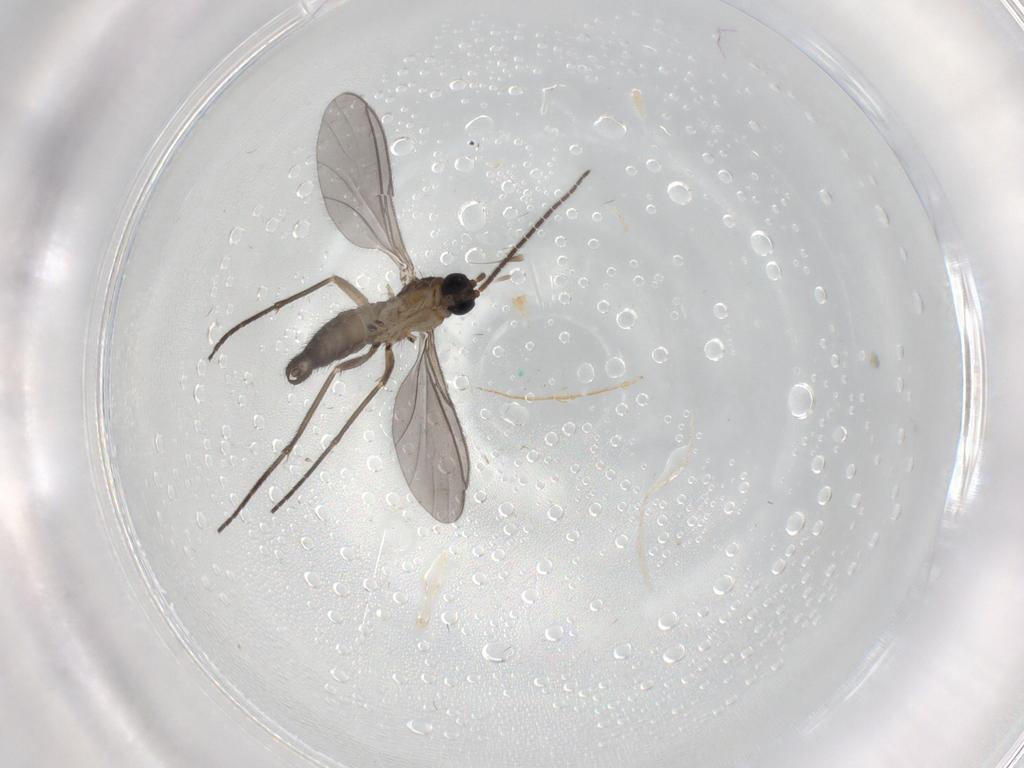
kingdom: Animalia
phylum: Arthropoda
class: Insecta
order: Diptera
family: Sciaridae
